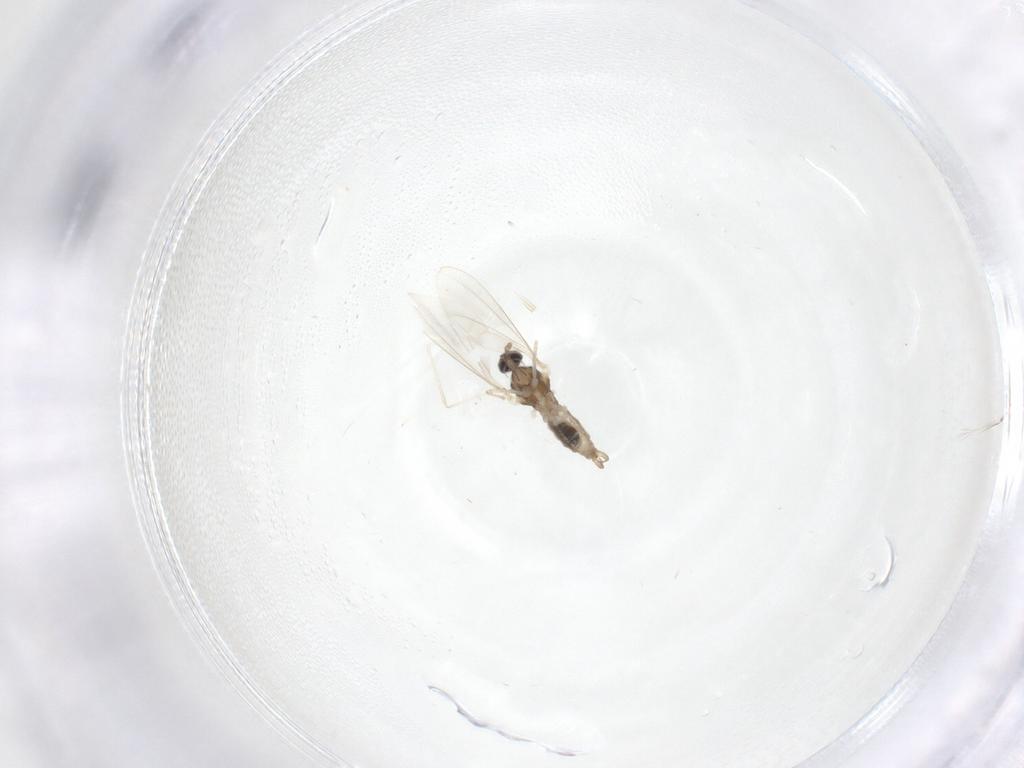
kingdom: Animalia
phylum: Arthropoda
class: Insecta
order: Diptera
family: Cecidomyiidae
